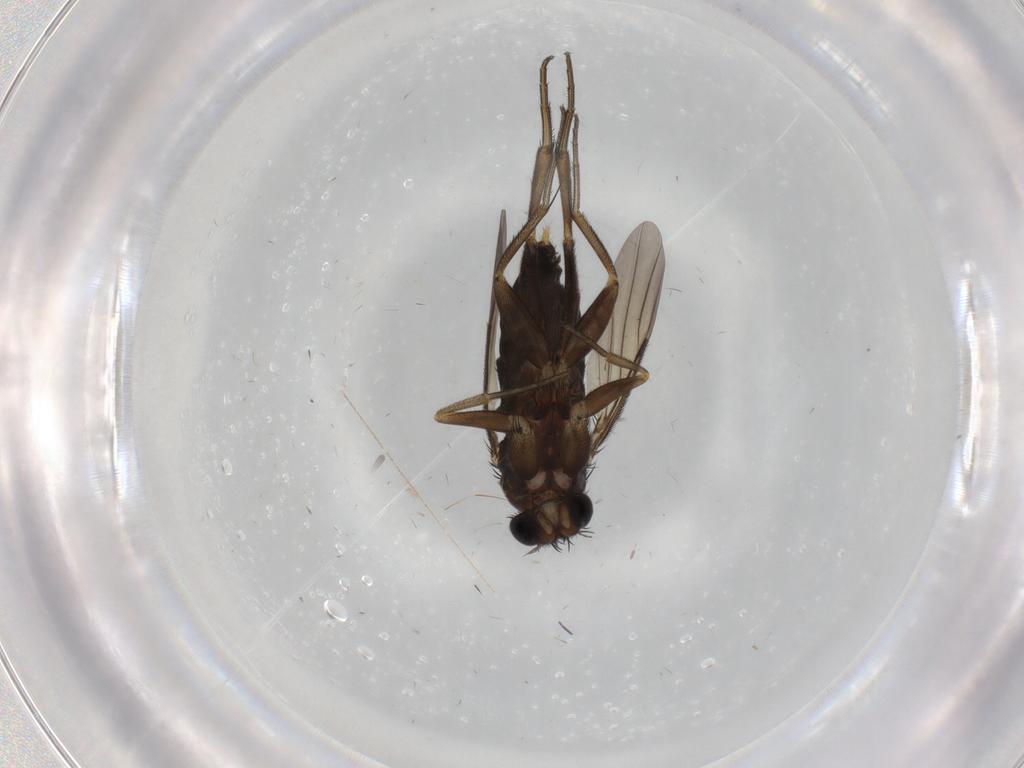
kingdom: Animalia
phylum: Arthropoda
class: Insecta
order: Diptera
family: Phoridae
